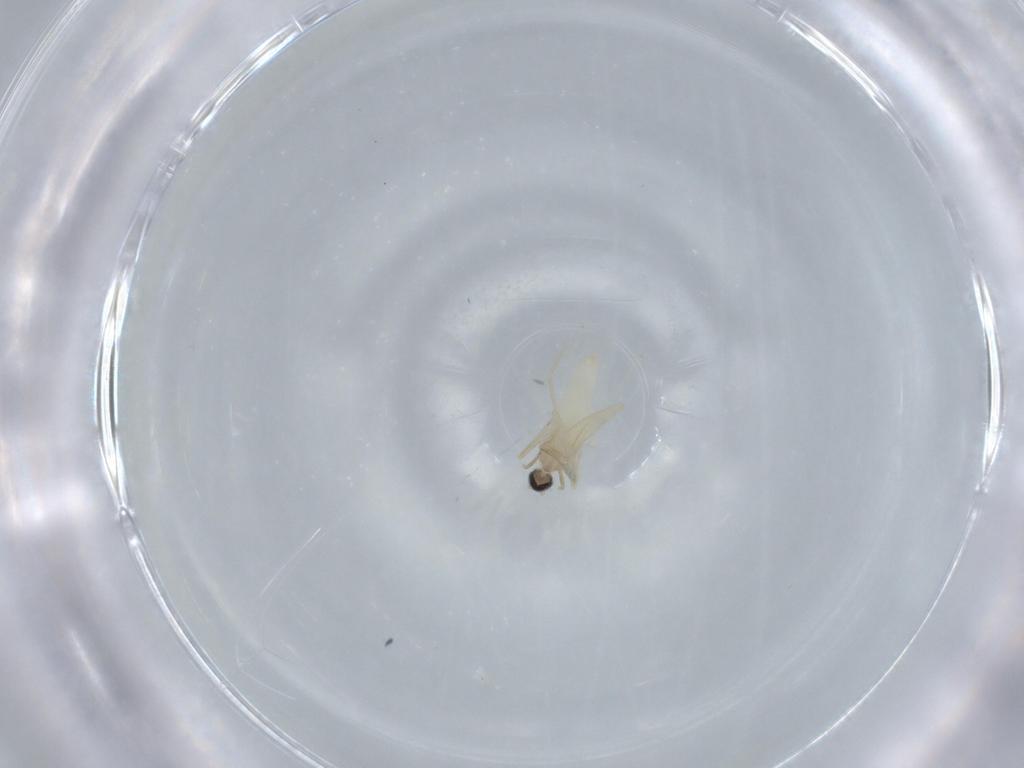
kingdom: Animalia
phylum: Arthropoda
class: Insecta
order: Diptera
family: Cecidomyiidae
